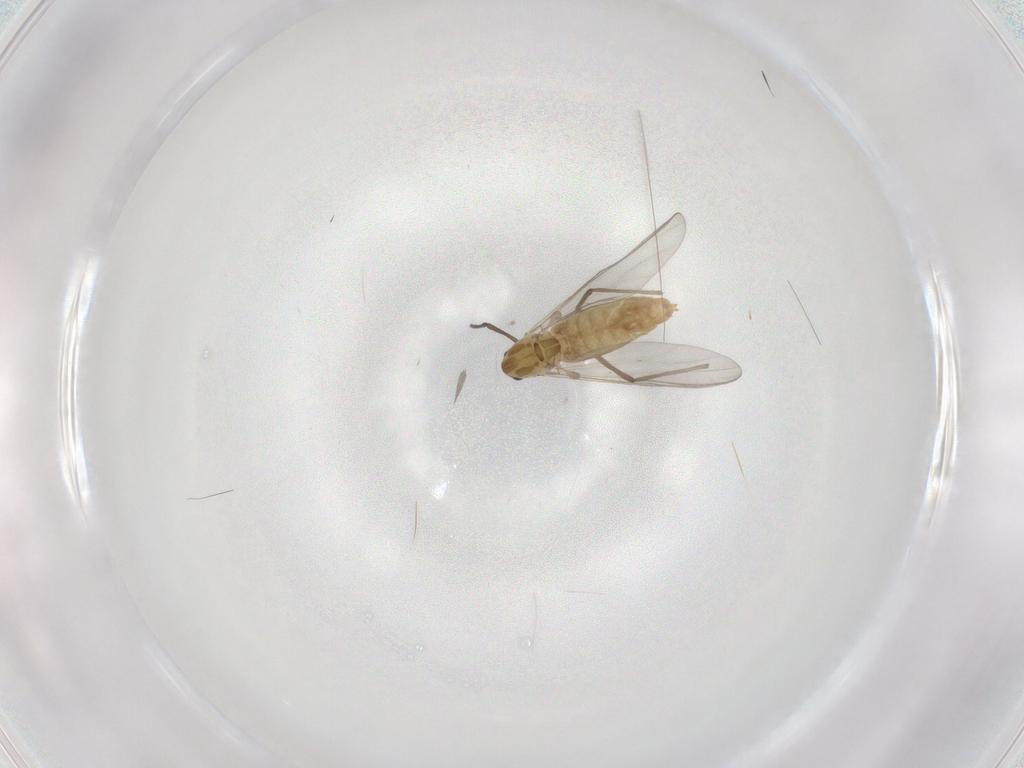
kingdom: Animalia
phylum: Arthropoda
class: Insecta
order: Diptera
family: Chironomidae
